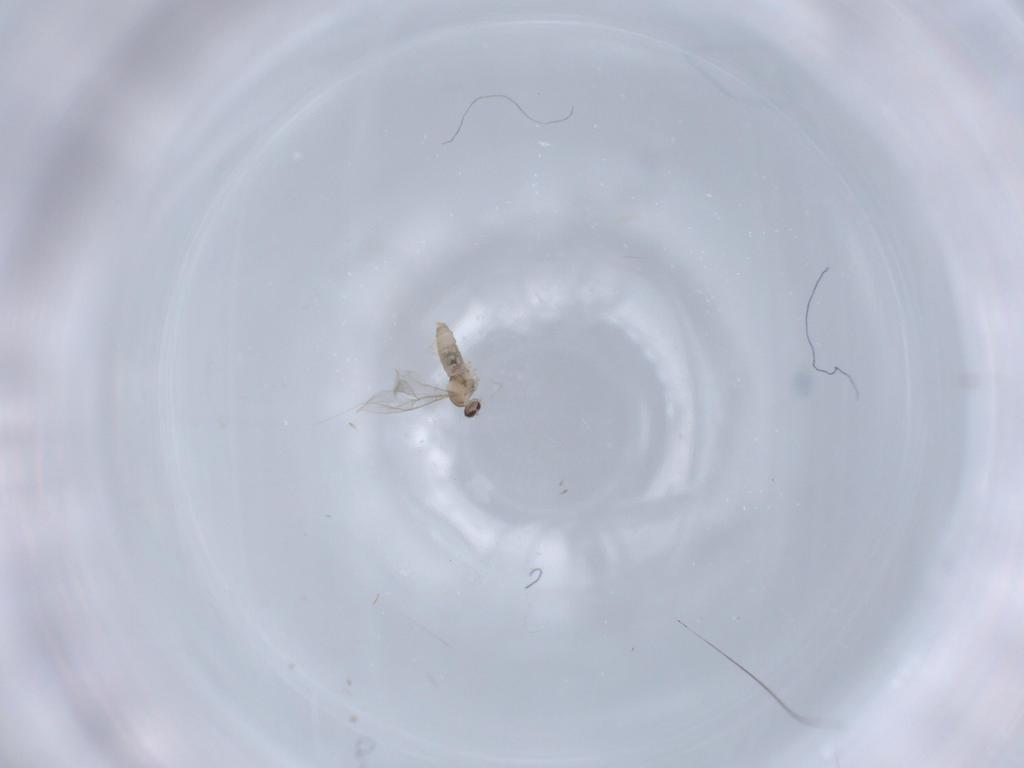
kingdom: Animalia
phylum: Arthropoda
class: Insecta
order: Diptera
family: Cecidomyiidae
